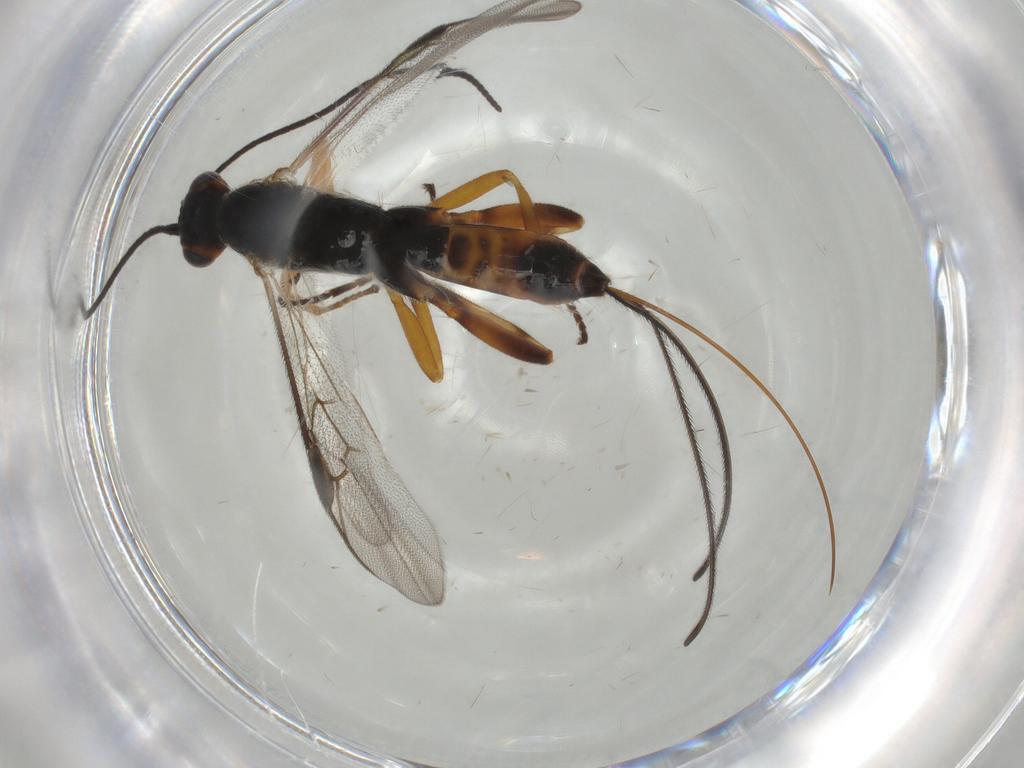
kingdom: Animalia
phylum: Arthropoda
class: Insecta
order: Hymenoptera
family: Braconidae
